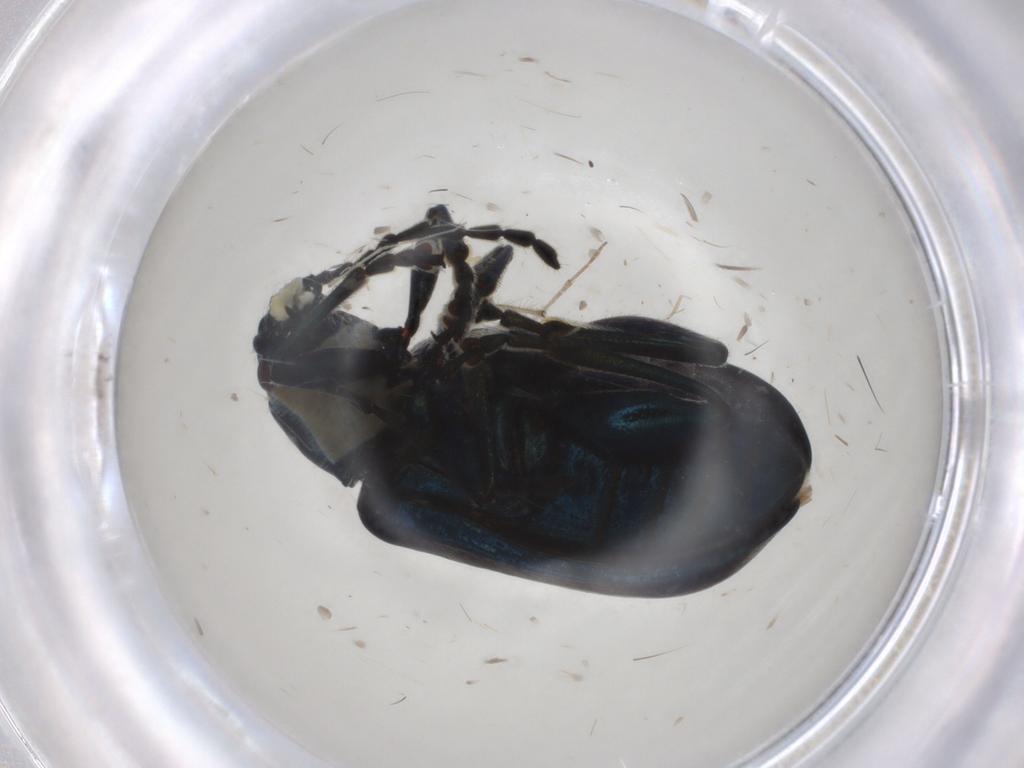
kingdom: Animalia
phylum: Arthropoda
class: Insecta
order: Coleoptera
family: Chrysomelidae
